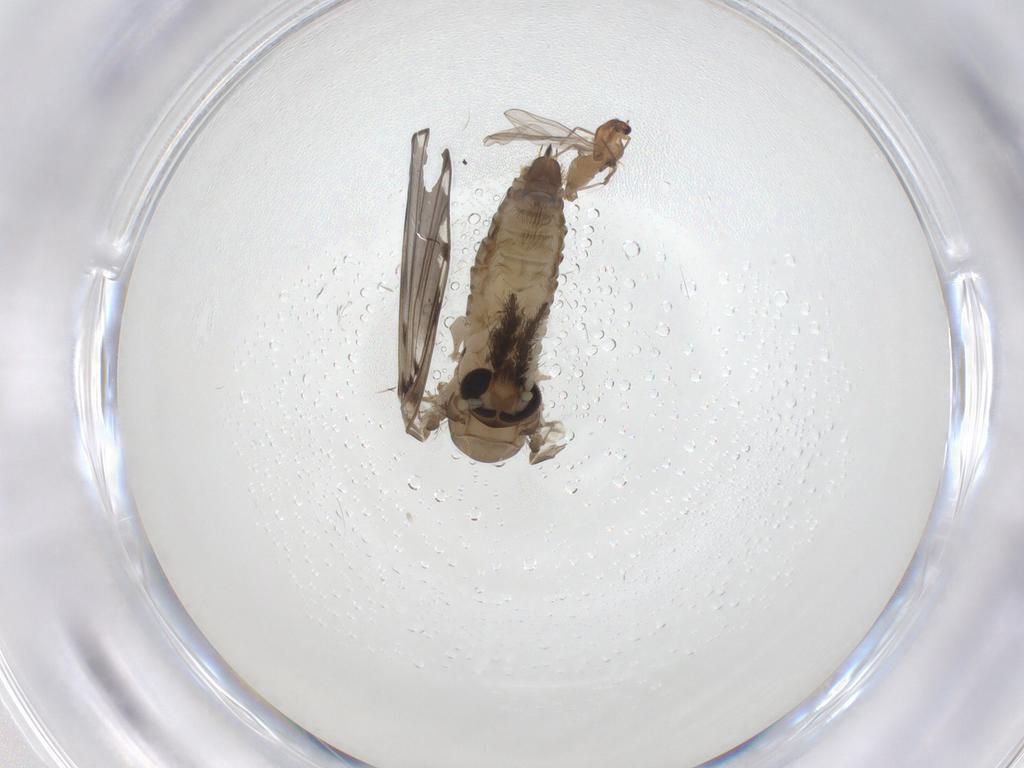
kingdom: Animalia
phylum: Arthropoda
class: Insecta
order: Diptera
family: Psychodidae
